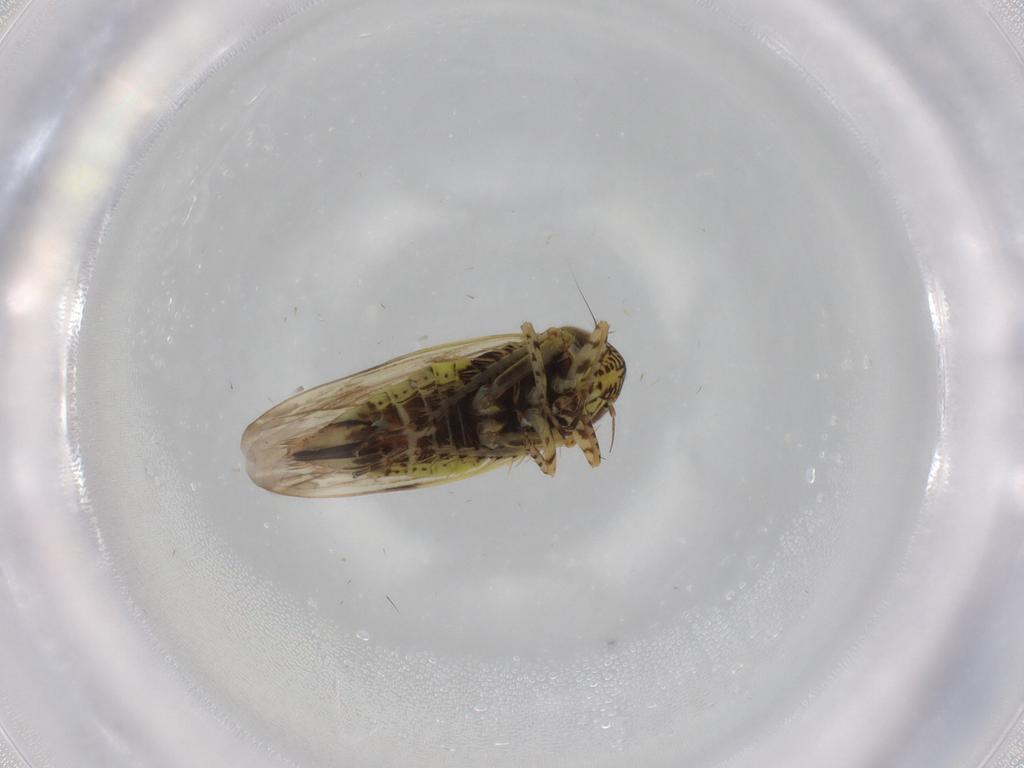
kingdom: Animalia
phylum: Arthropoda
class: Insecta
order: Hemiptera
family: Cicadellidae
